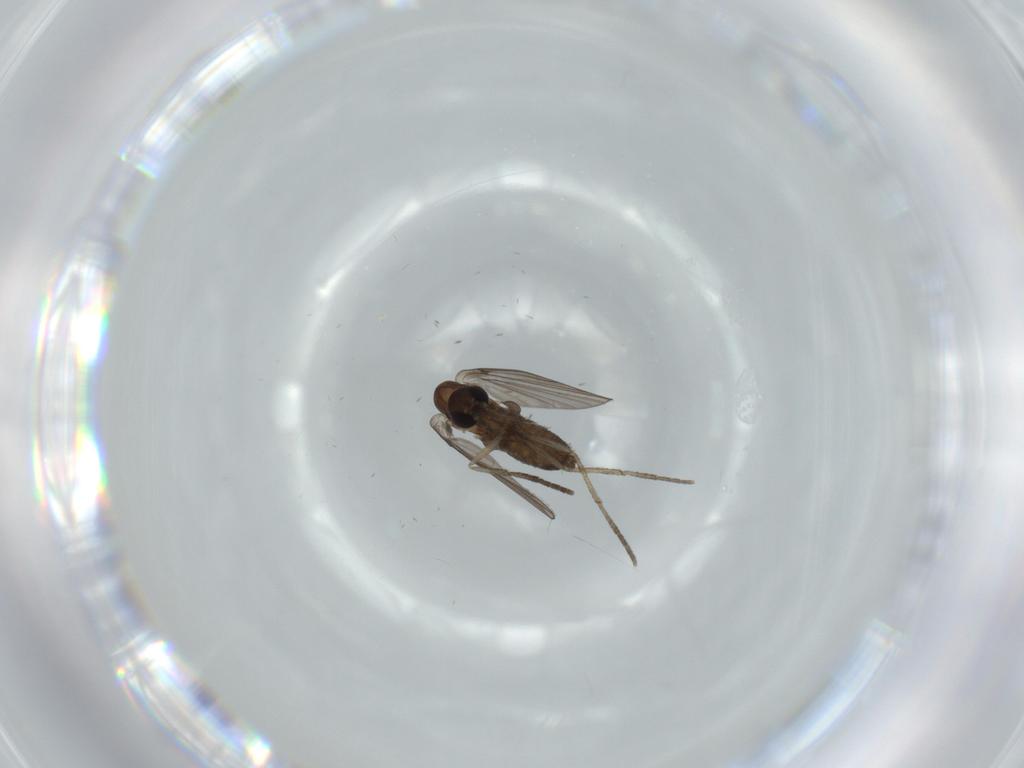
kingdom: Animalia
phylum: Arthropoda
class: Insecta
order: Diptera
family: Psychodidae
